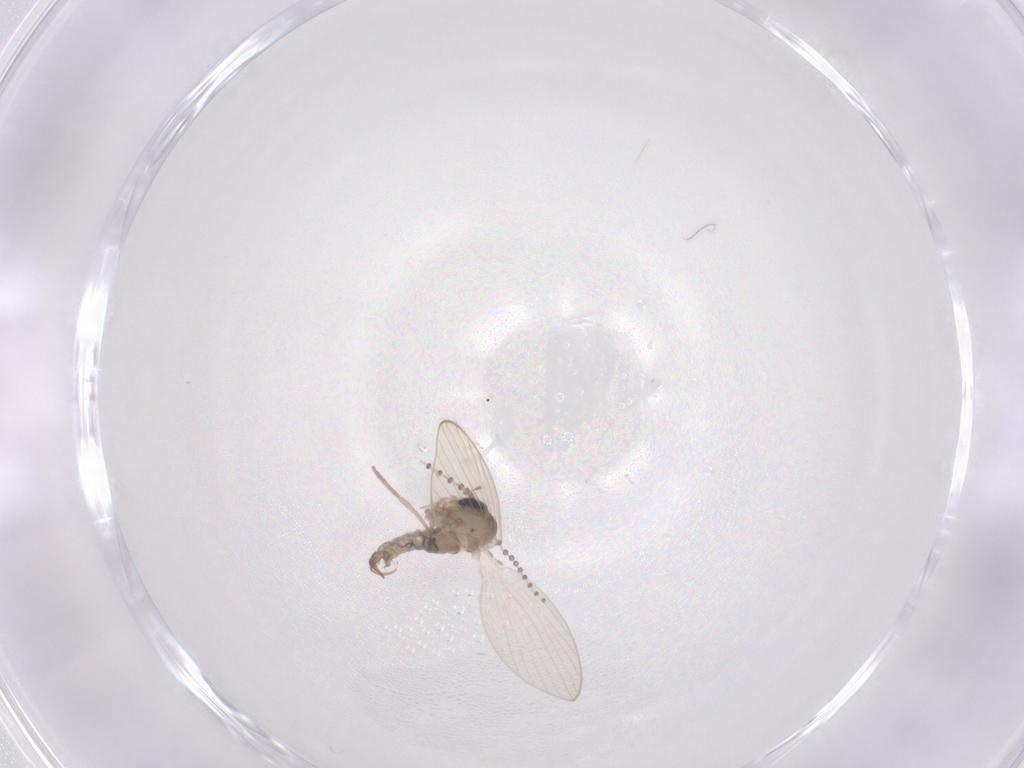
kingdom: Animalia
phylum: Arthropoda
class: Insecta
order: Diptera
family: Psychodidae
